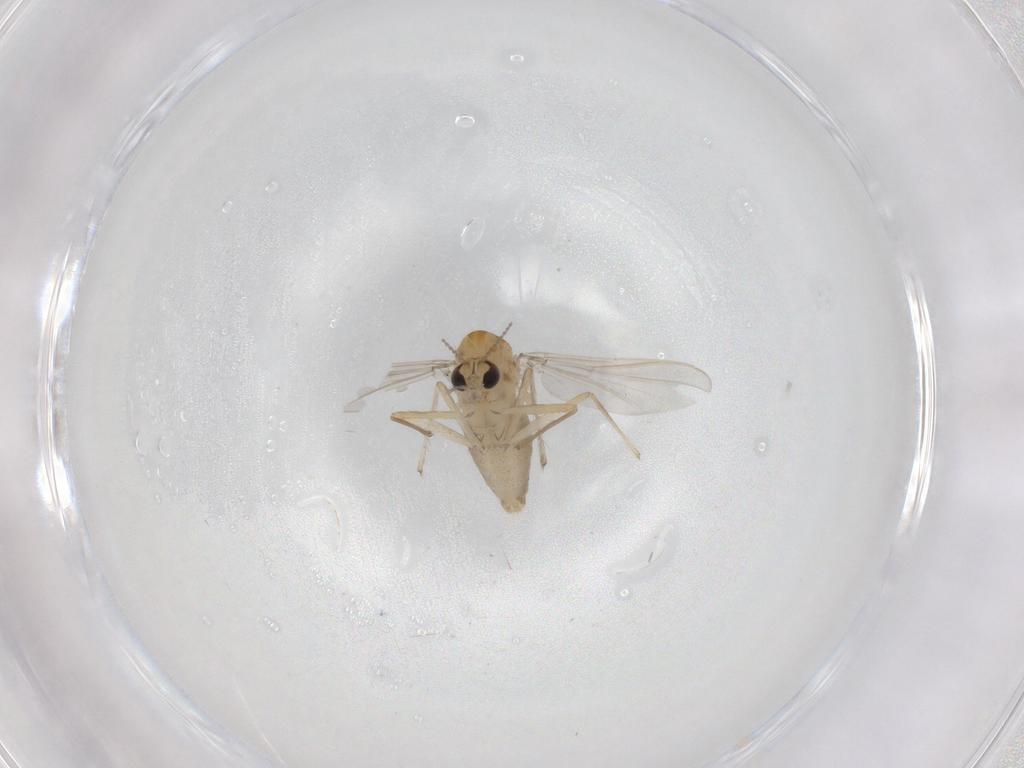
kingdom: Animalia
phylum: Arthropoda
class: Insecta
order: Diptera
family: Chironomidae
